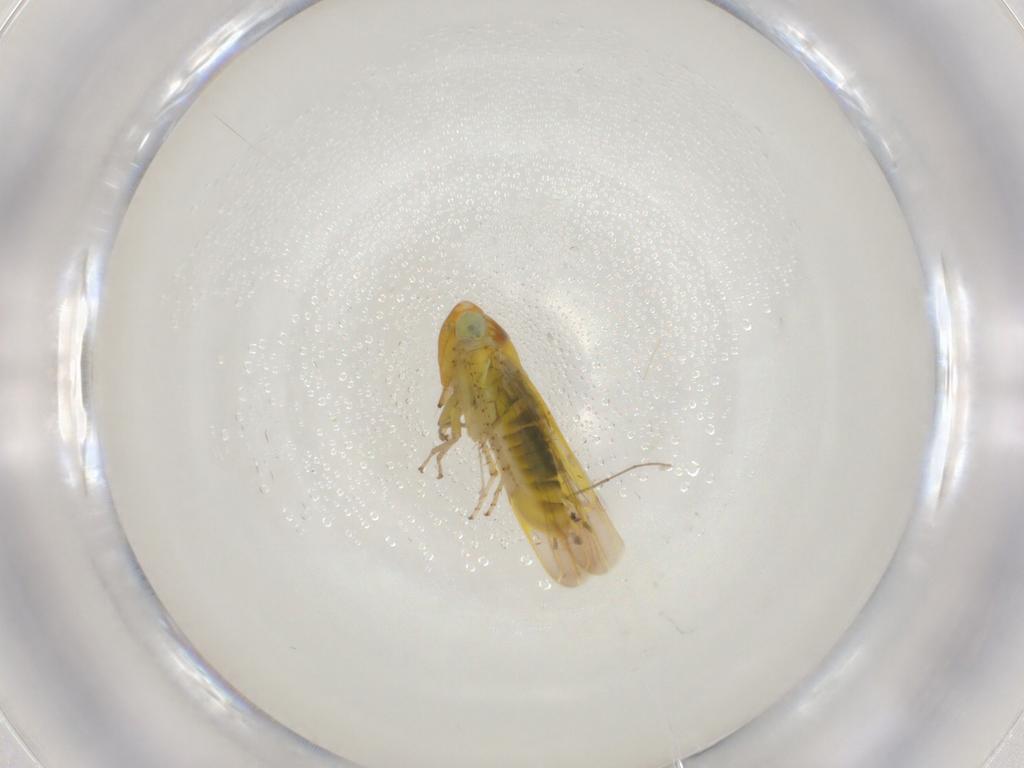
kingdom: Animalia
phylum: Arthropoda
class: Insecta
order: Hemiptera
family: Cicadellidae
